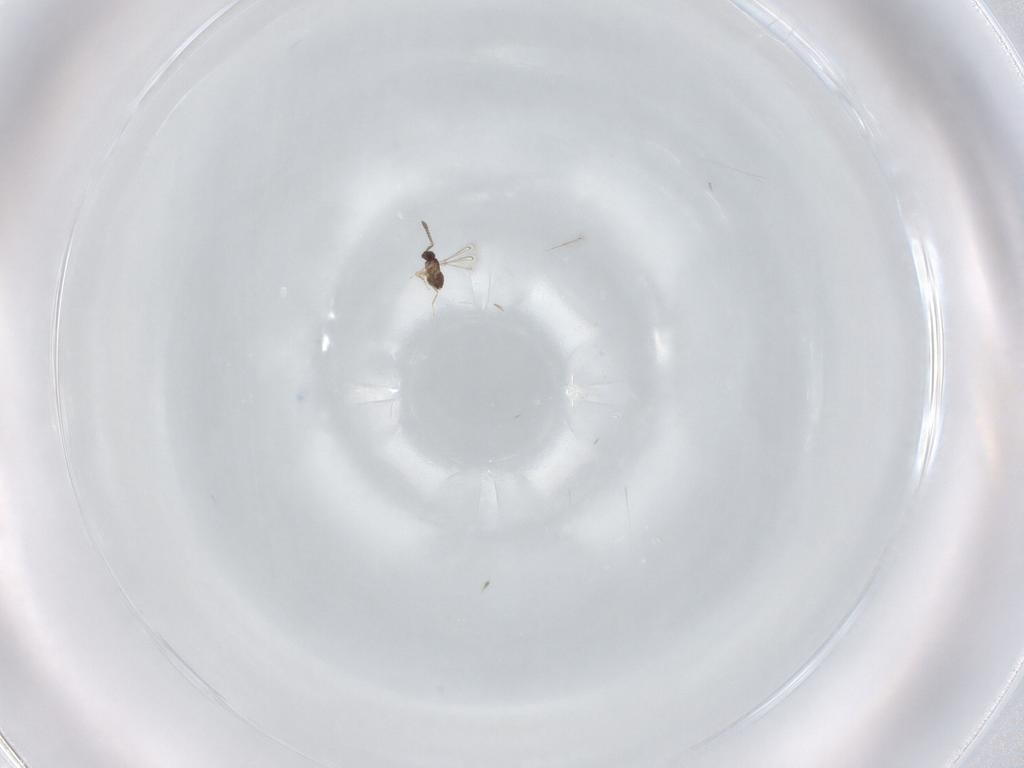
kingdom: Animalia
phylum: Arthropoda
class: Insecta
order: Hymenoptera
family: Mymaridae
